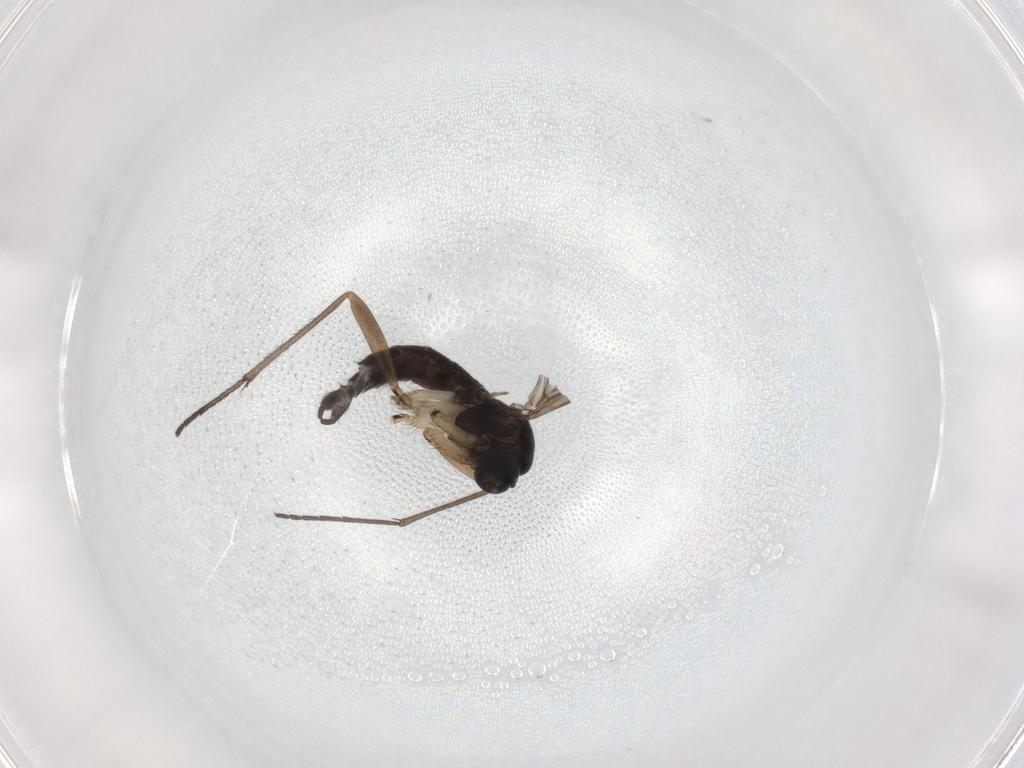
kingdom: Animalia
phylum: Arthropoda
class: Insecta
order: Diptera
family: Sciaridae
